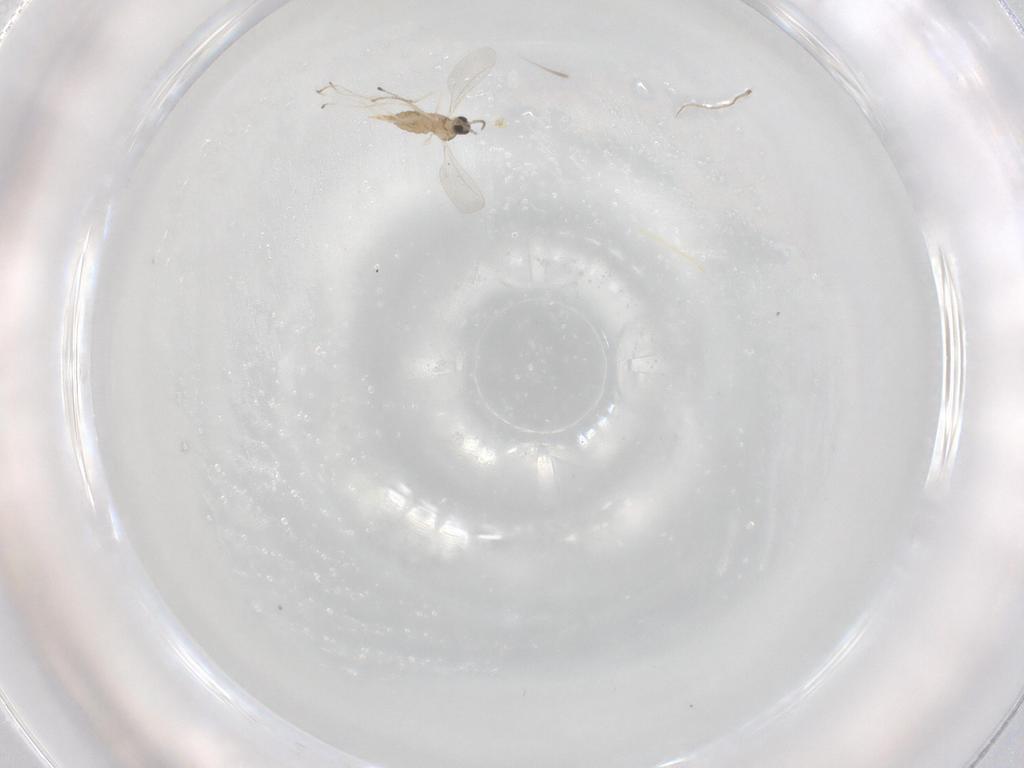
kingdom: Animalia
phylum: Arthropoda
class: Insecta
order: Diptera
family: Cecidomyiidae
